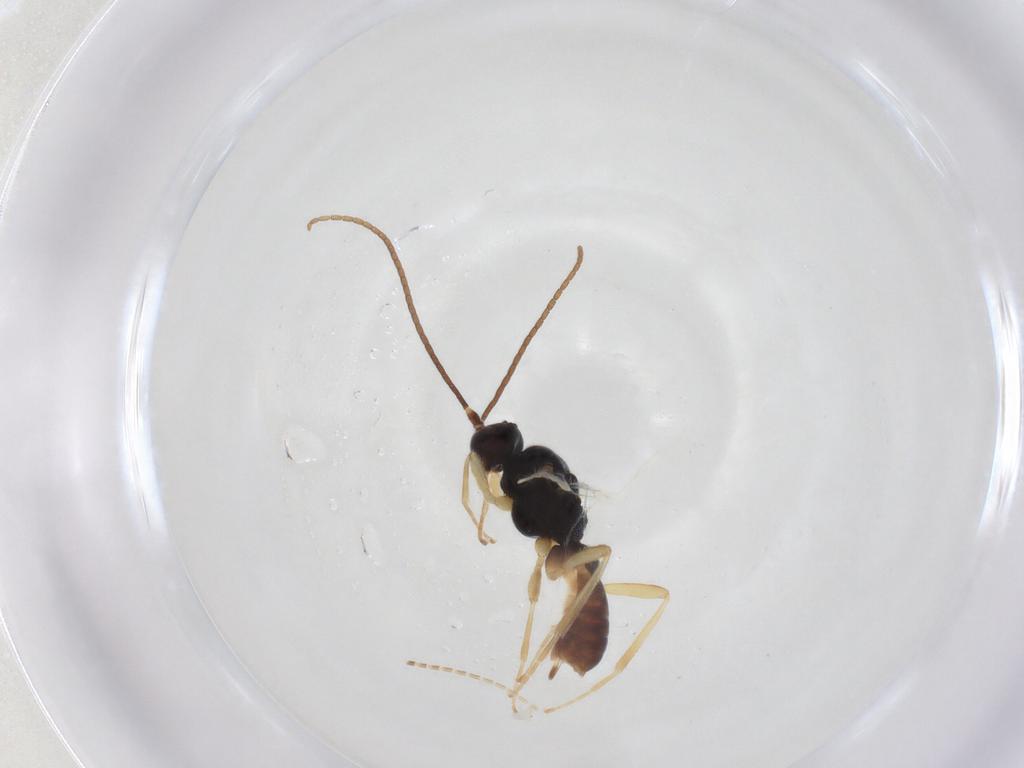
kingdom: Animalia
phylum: Arthropoda
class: Insecta
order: Hymenoptera
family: Braconidae
